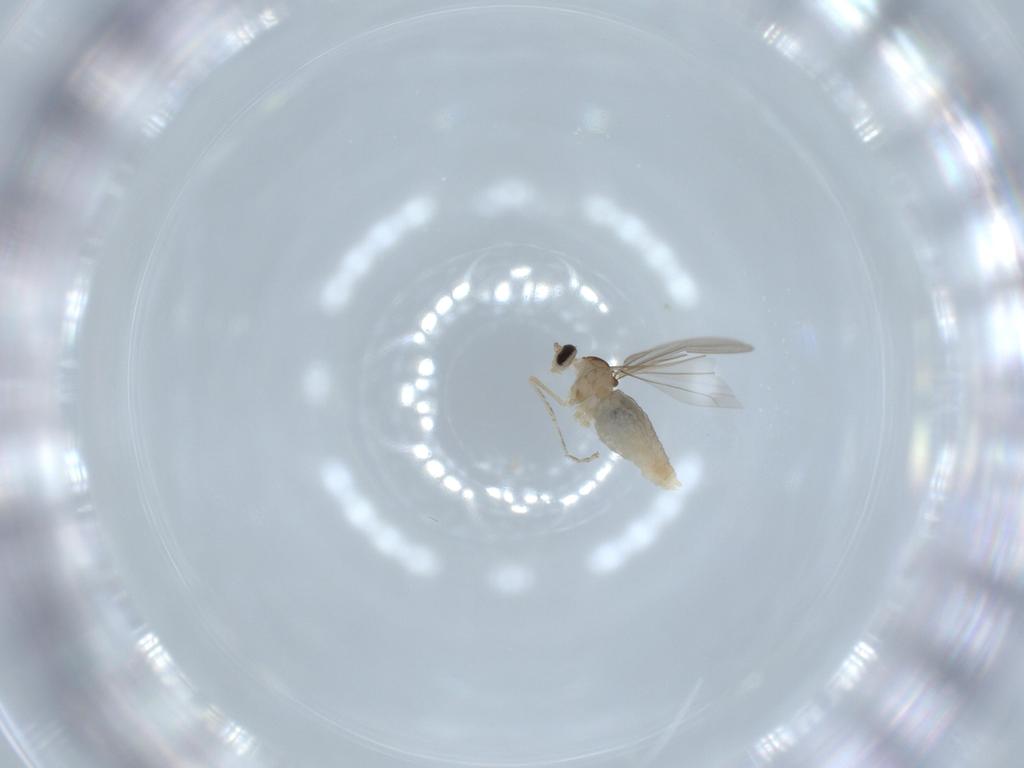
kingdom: Animalia
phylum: Arthropoda
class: Insecta
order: Diptera
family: Cecidomyiidae
